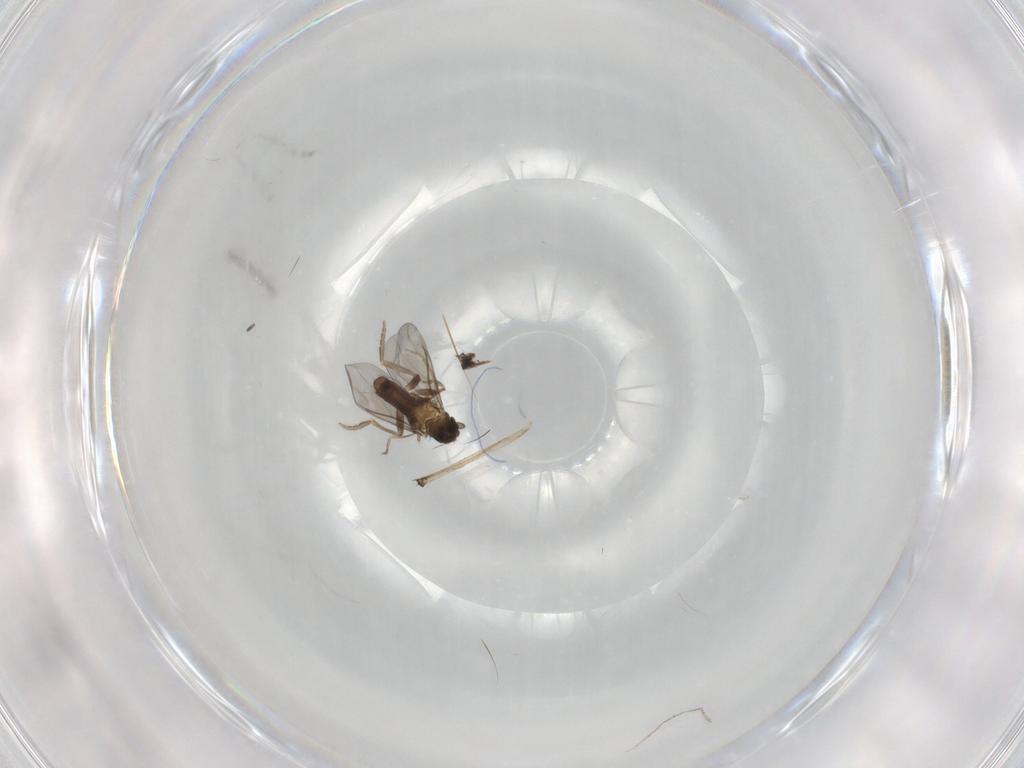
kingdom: Animalia
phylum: Arthropoda
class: Insecta
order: Diptera
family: Chironomidae
